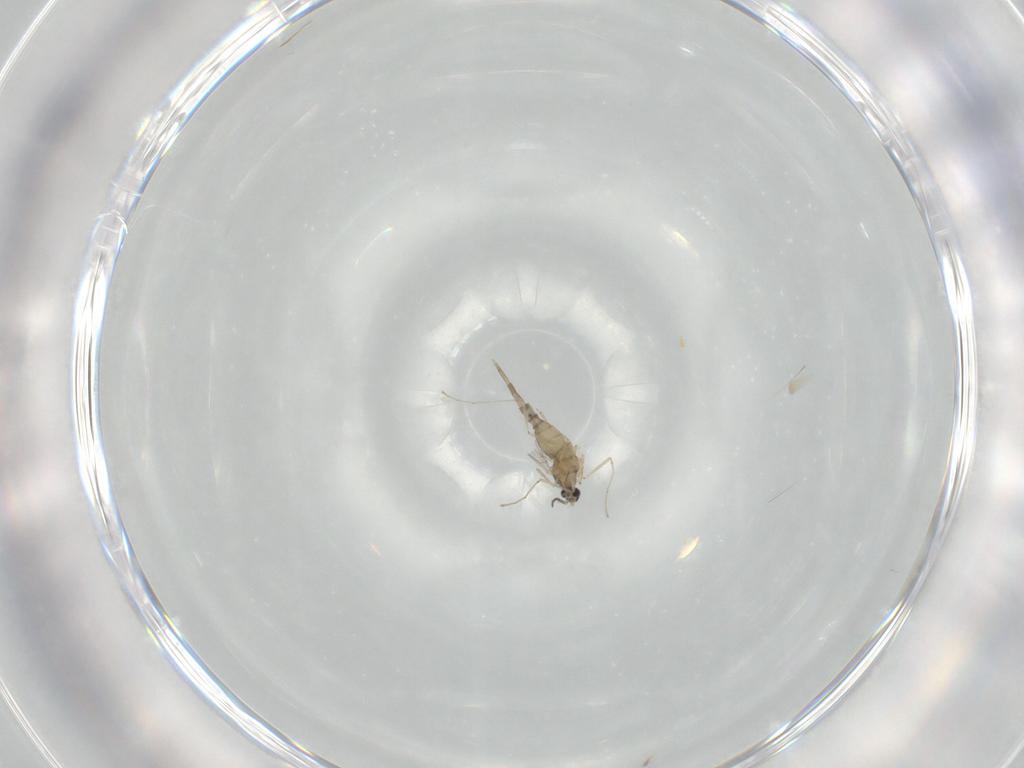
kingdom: Animalia
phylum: Arthropoda
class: Insecta
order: Diptera
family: Cecidomyiidae
